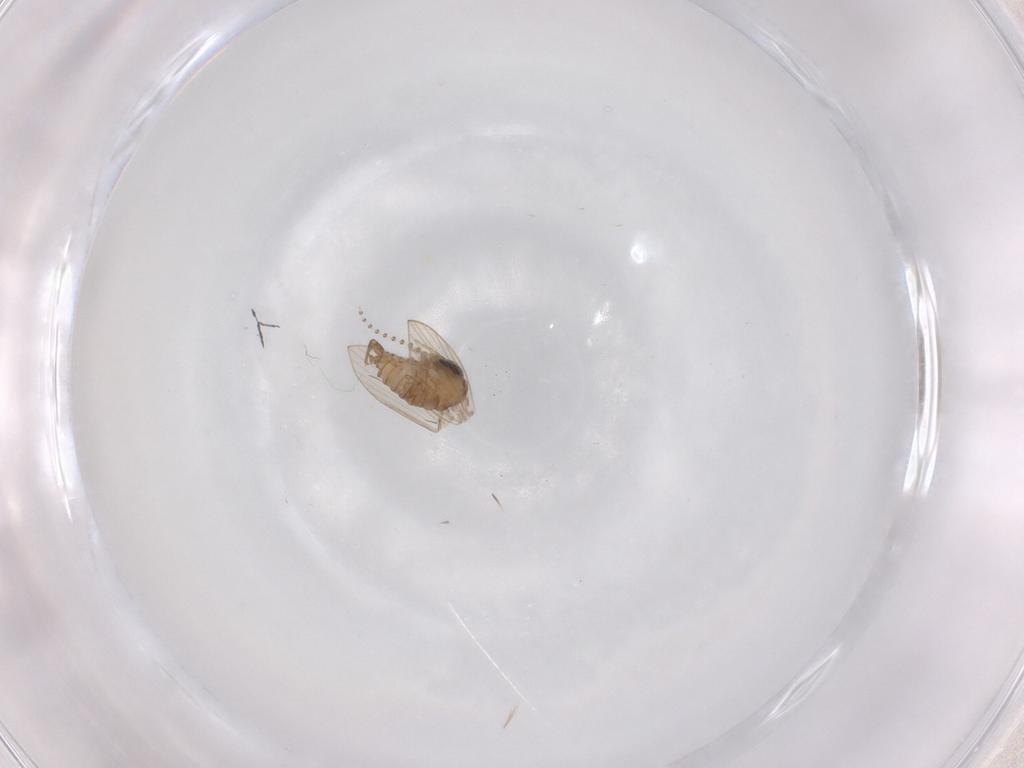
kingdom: Animalia
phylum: Arthropoda
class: Insecta
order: Diptera
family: Psychodidae
